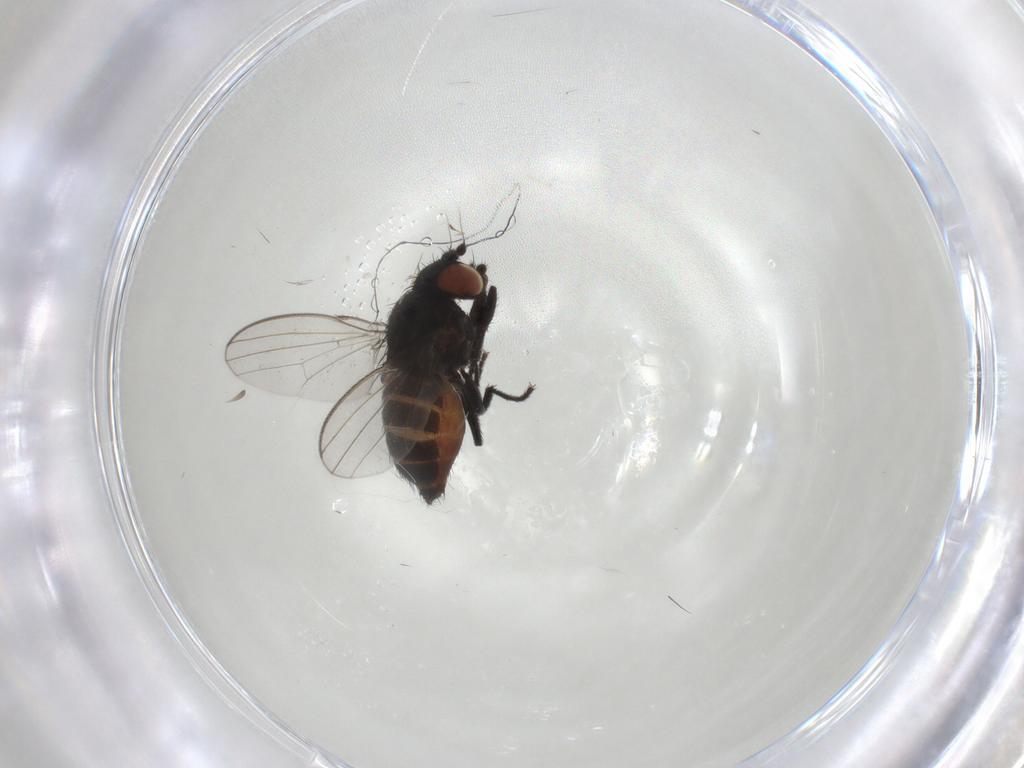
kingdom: Animalia
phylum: Arthropoda
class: Insecta
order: Diptera
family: Milichiidae
